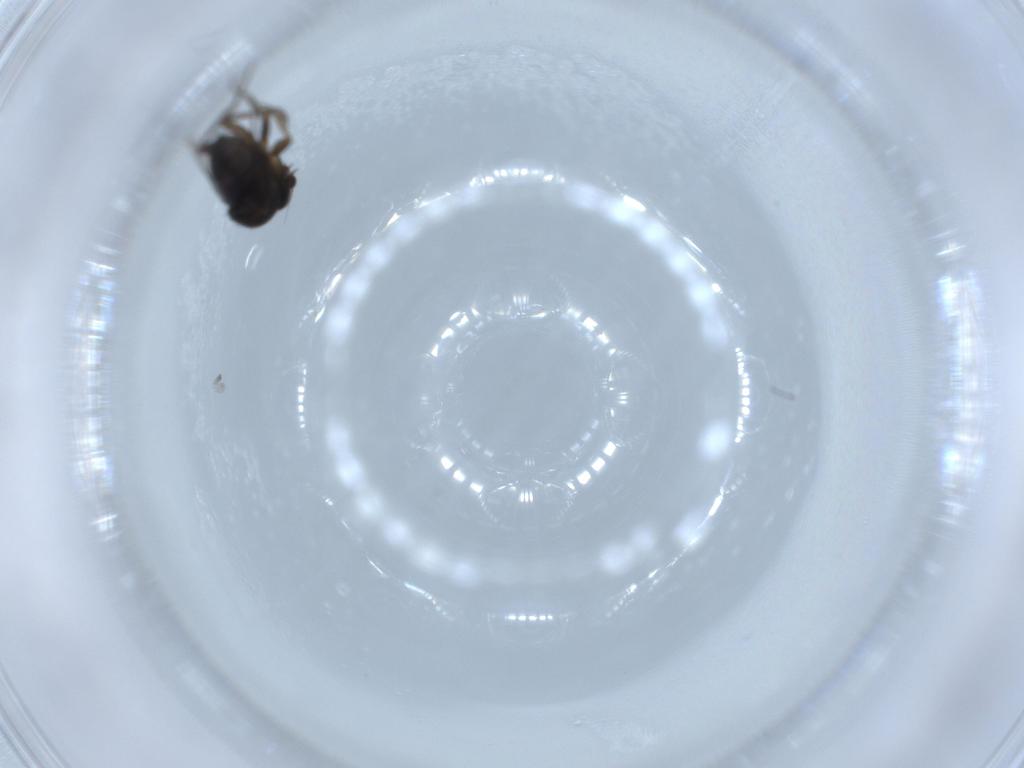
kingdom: Animalia
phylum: Arthropoda
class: Insecta
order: Diptera
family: Phoridae
